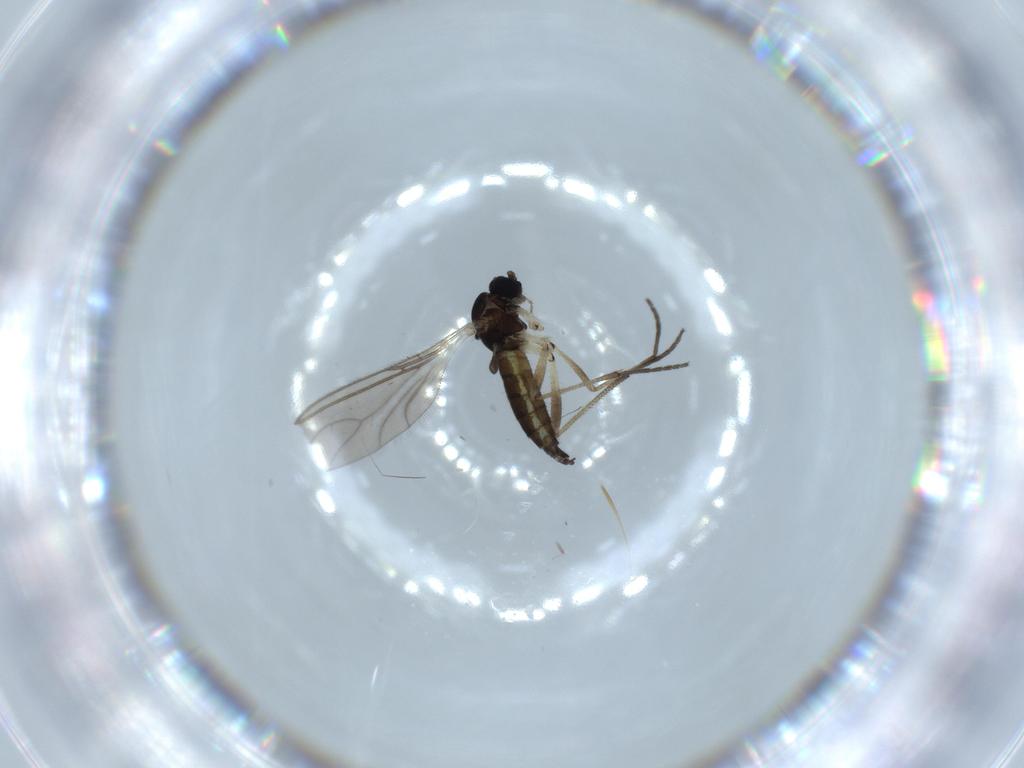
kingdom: Animalia
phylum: Arthropoda
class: Insecta
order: Diptera
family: Sciaridae
